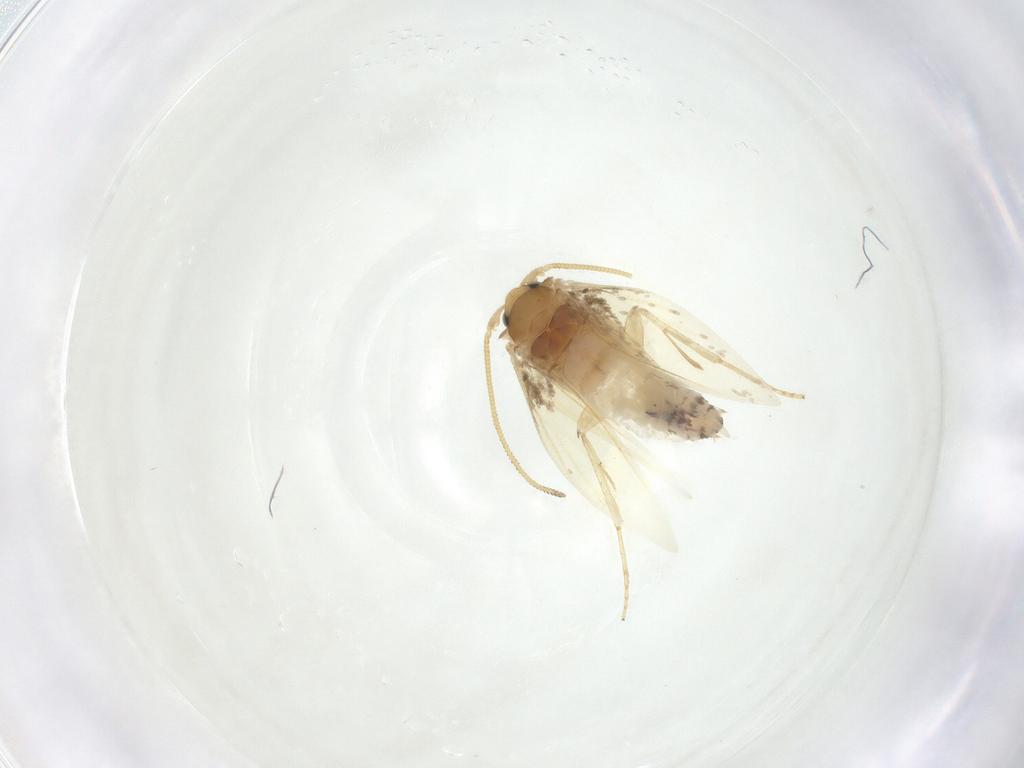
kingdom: Animalia
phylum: Arthropoda
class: Insecta
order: Lepidoptera
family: Nepticulidae
